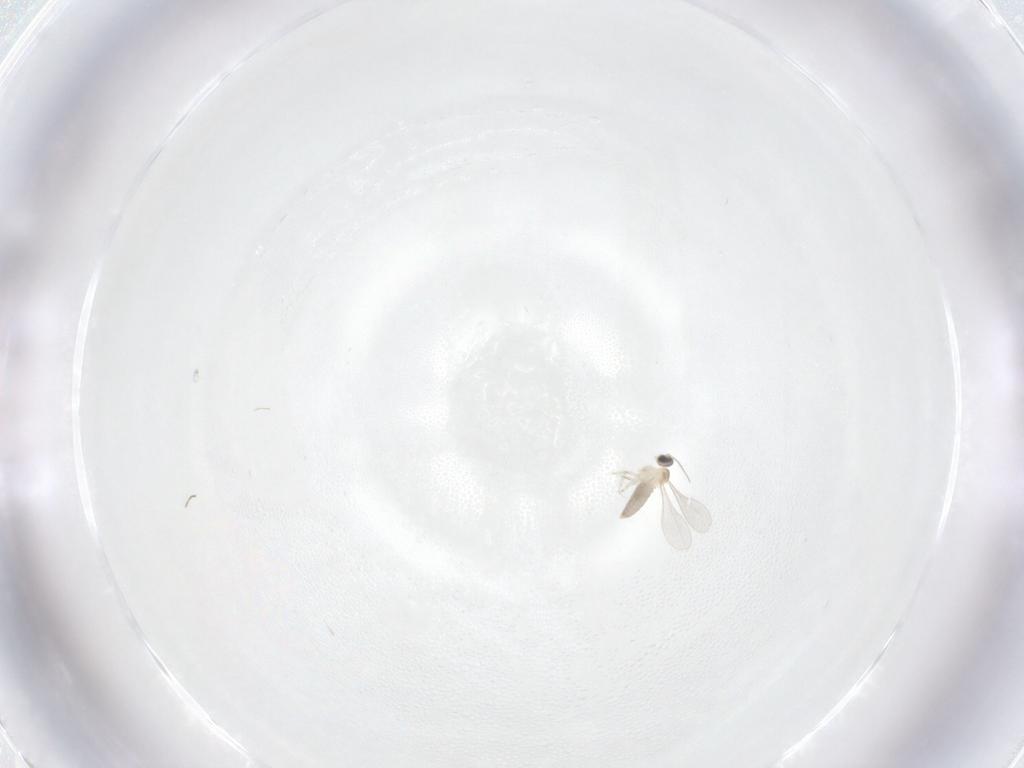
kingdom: Animalia
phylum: Arthropoda
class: Insecta
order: Diptera
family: Cecidomyiidae
